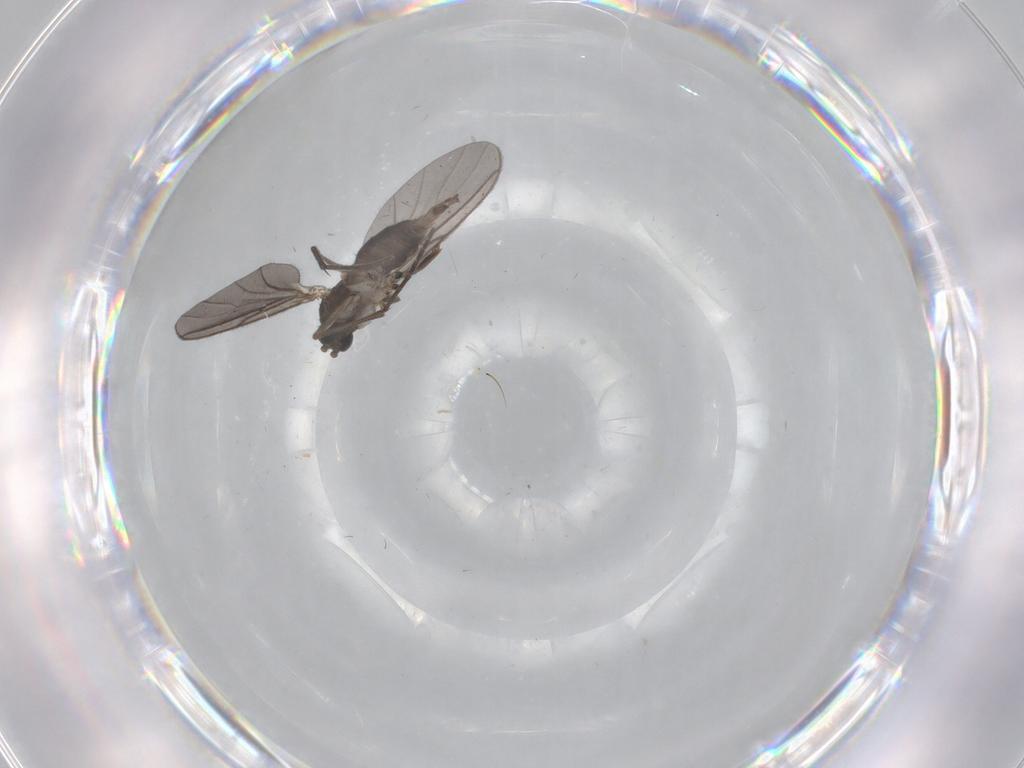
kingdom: Animalia
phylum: Arthropoda
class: Insecta
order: Diptera
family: Sciaridae
